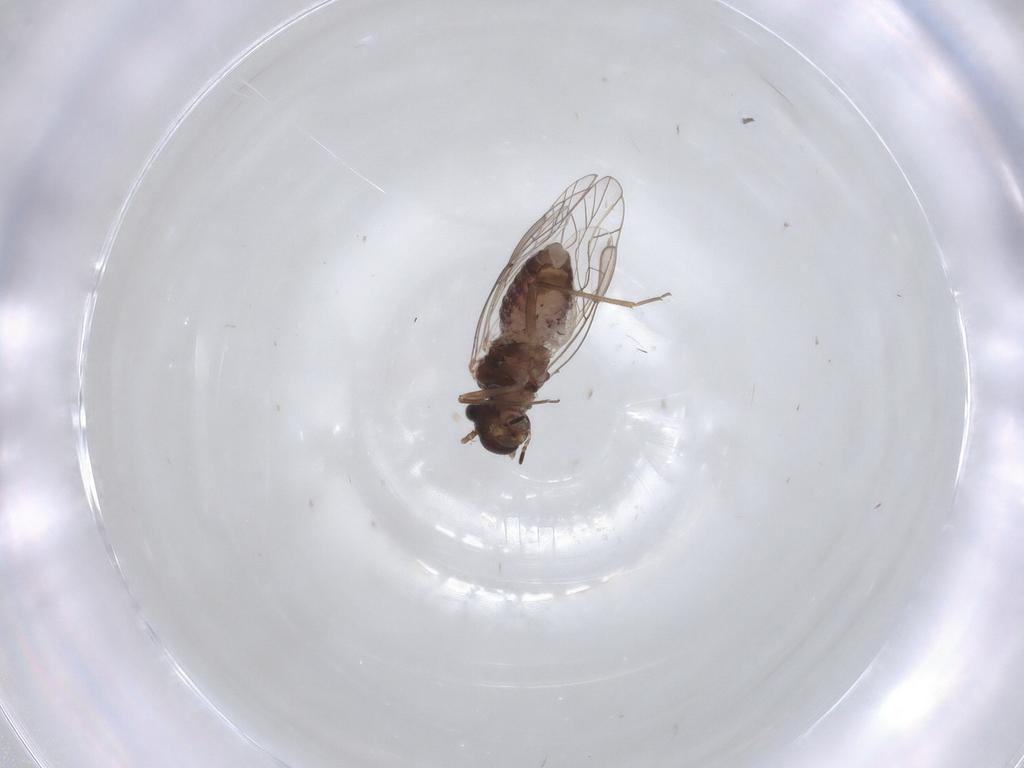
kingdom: Animalia
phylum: Arthropoda
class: Insecta
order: Psocodea
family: Lachesillidae
